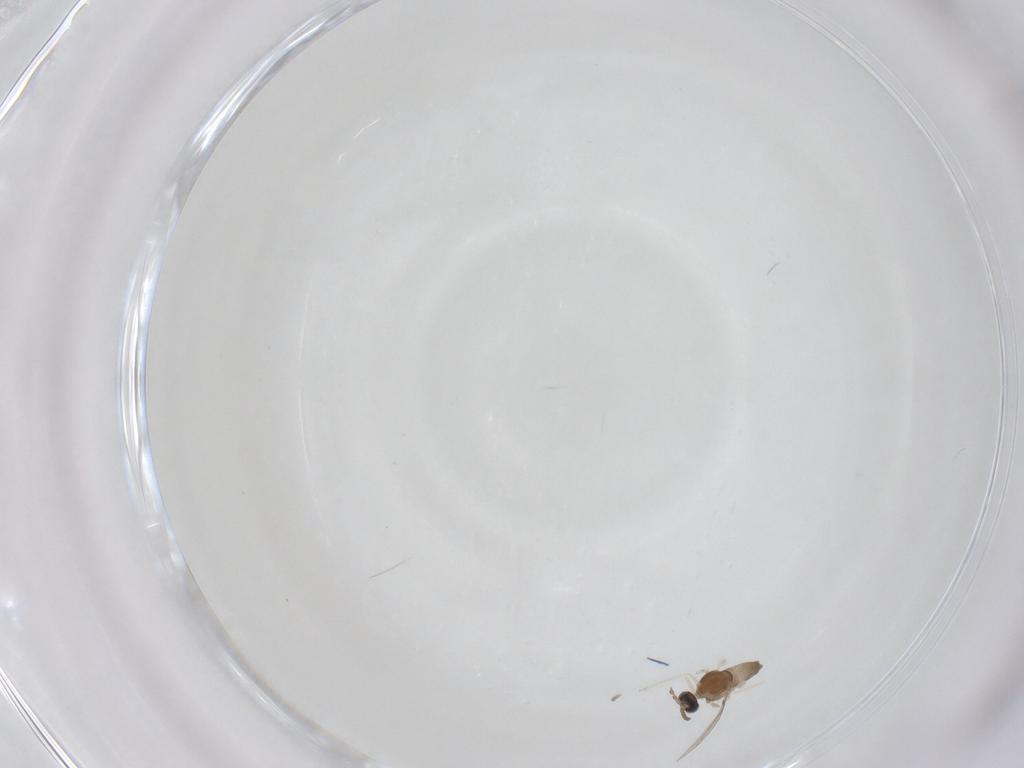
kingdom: Animalia
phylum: Arthropoda
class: Insecta
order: Diptera
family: Cecidomyiidae
